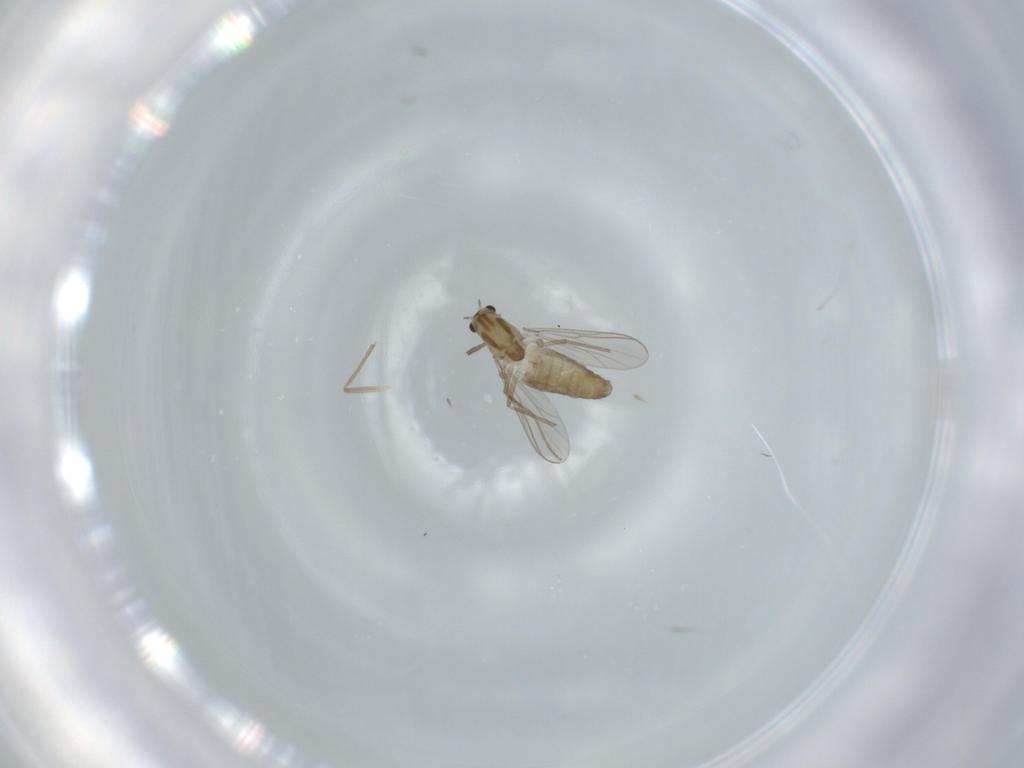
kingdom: Animalia
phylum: Arthropoda
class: Insecta
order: Diptera
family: Chironomidae
